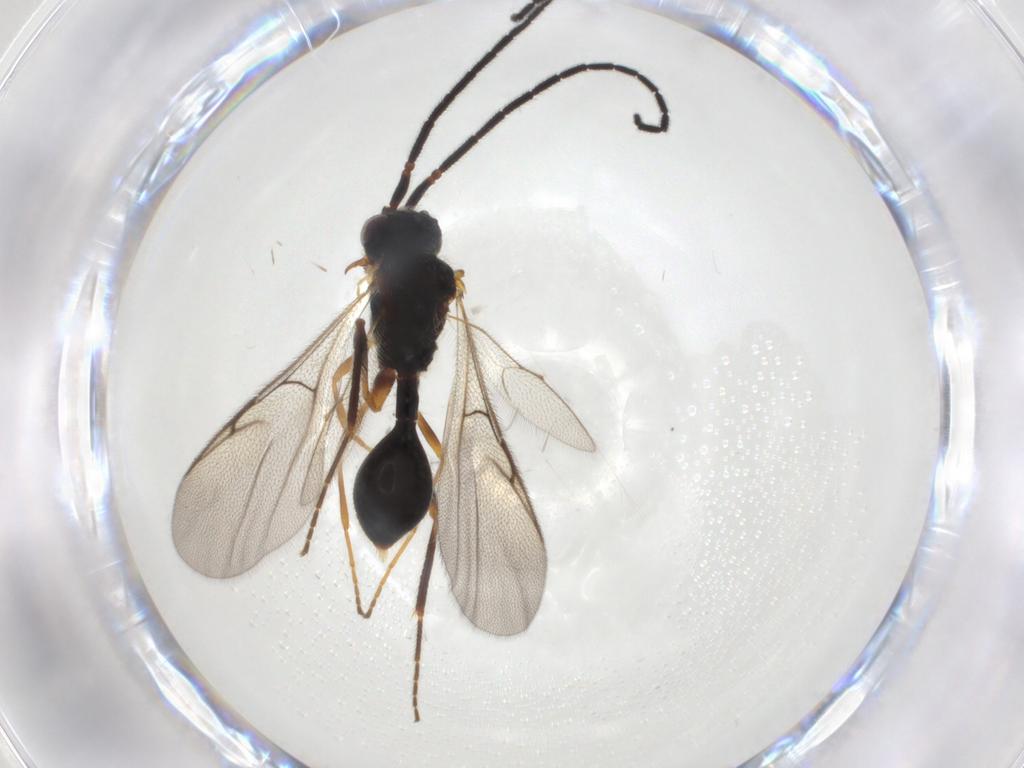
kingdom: Animalia
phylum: Arthropoda
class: Insecta
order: Hymenoptera
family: Diapriidae
